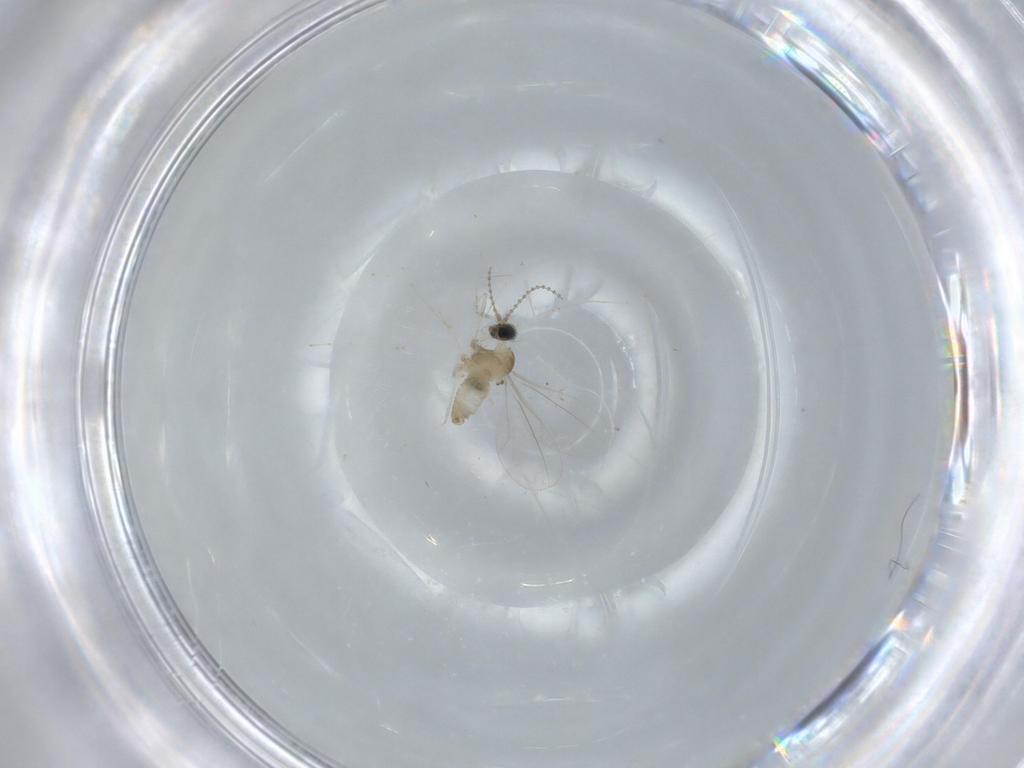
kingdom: Animalia
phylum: Arthropoda
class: Insecta
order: Diptera
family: Cecidomyiidae
